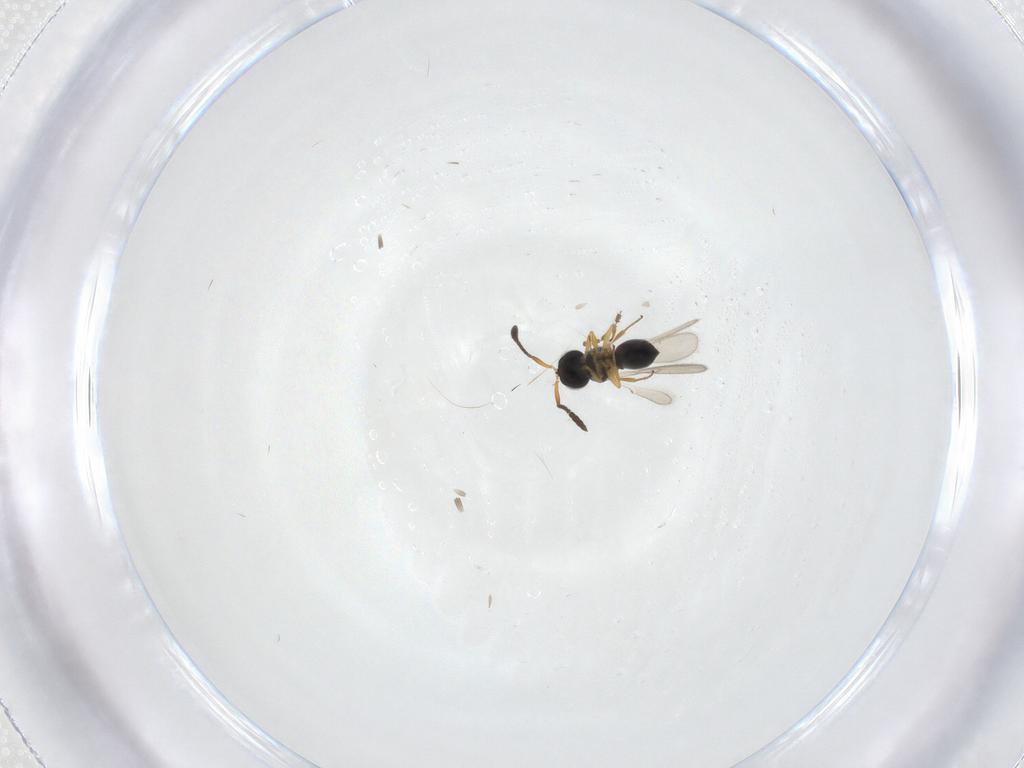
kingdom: Animalia
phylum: Arthropoda
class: Insecta
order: Hymenoptera
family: Scelionidae
